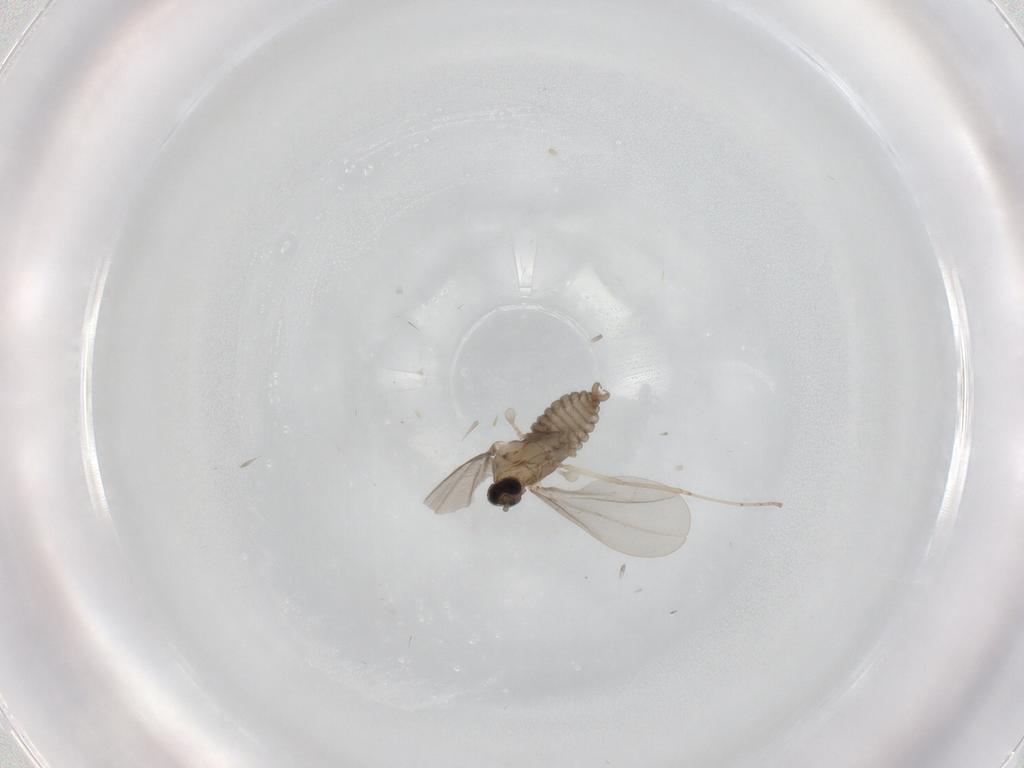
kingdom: Animalia
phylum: Arthropoda
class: Insecta
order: Diptera
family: Cecidomyiidae
